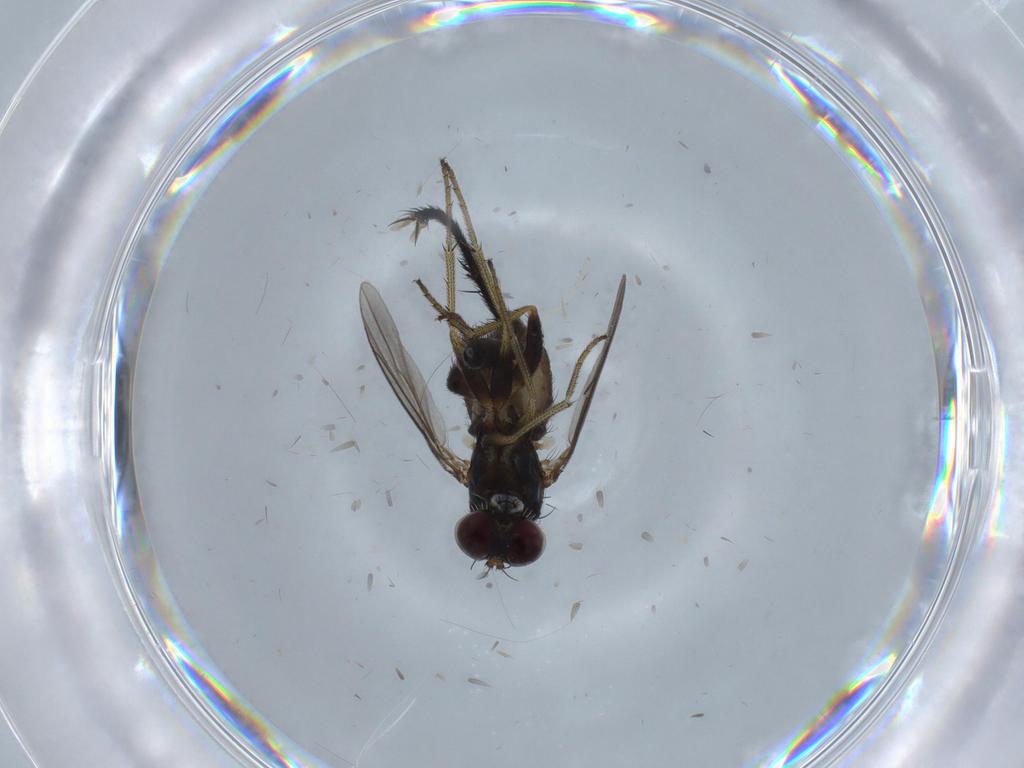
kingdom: Animalia
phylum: Arthropoda
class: Insecta
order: Diptera
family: Tachinidae
